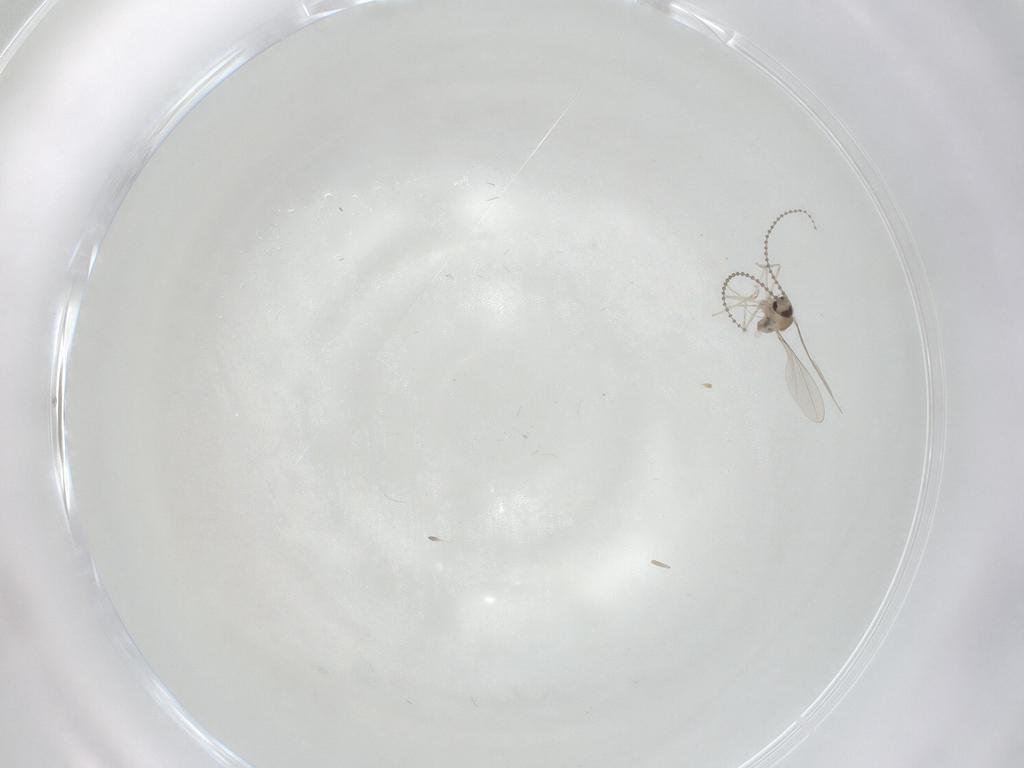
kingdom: Animalia
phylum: Arthropoda
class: Insecta
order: Diptera
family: Cecidomyiidae
